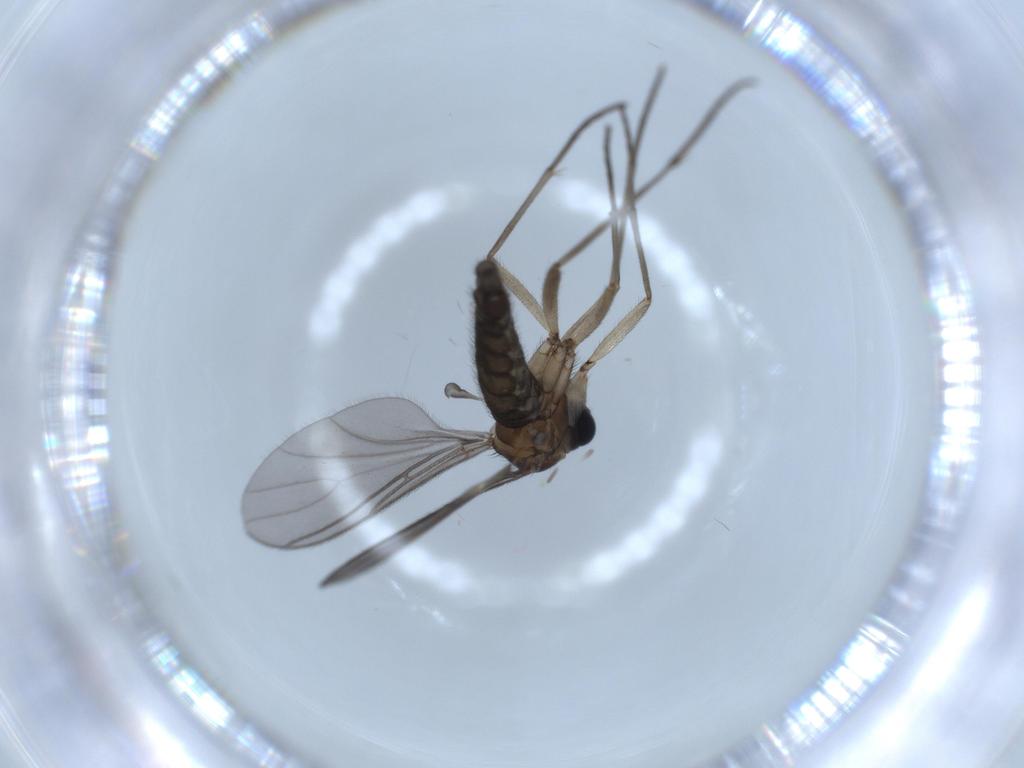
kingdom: Animalia
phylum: Arthropoda
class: Insecta
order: Diptera
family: Sciaridae
